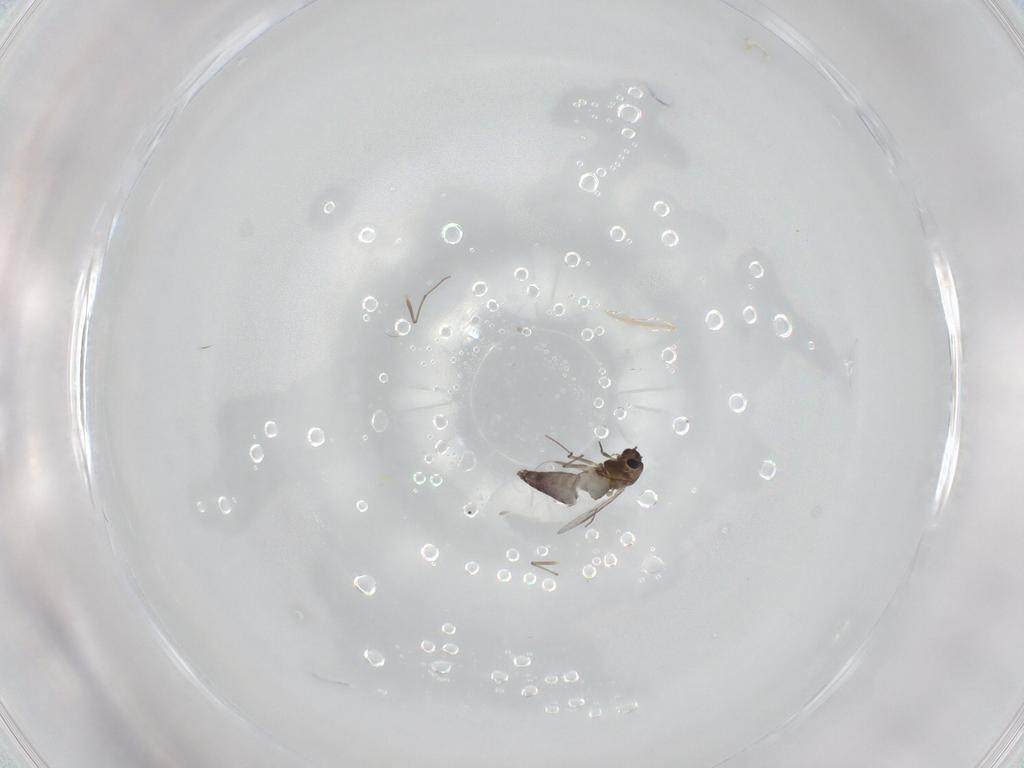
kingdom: Animalia
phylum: Arthropoda
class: Insecta
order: Diptera
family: Chironomidae
